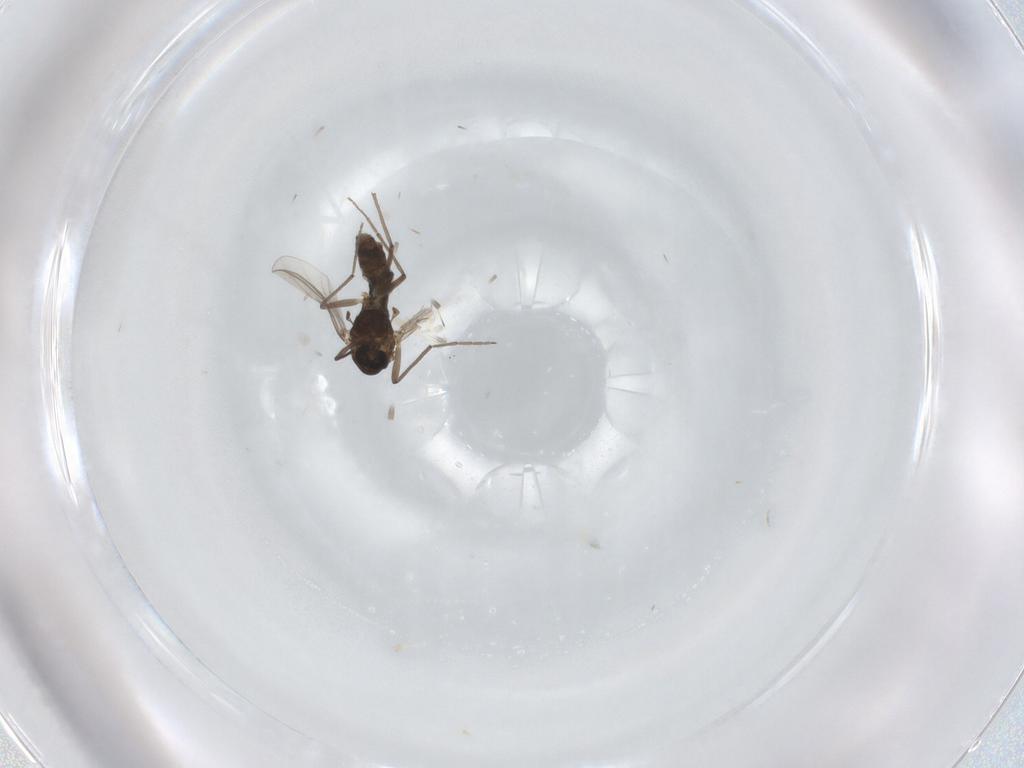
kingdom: Animalia
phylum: Arthropoda
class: Insecta
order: Diptera
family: Chironomidae
